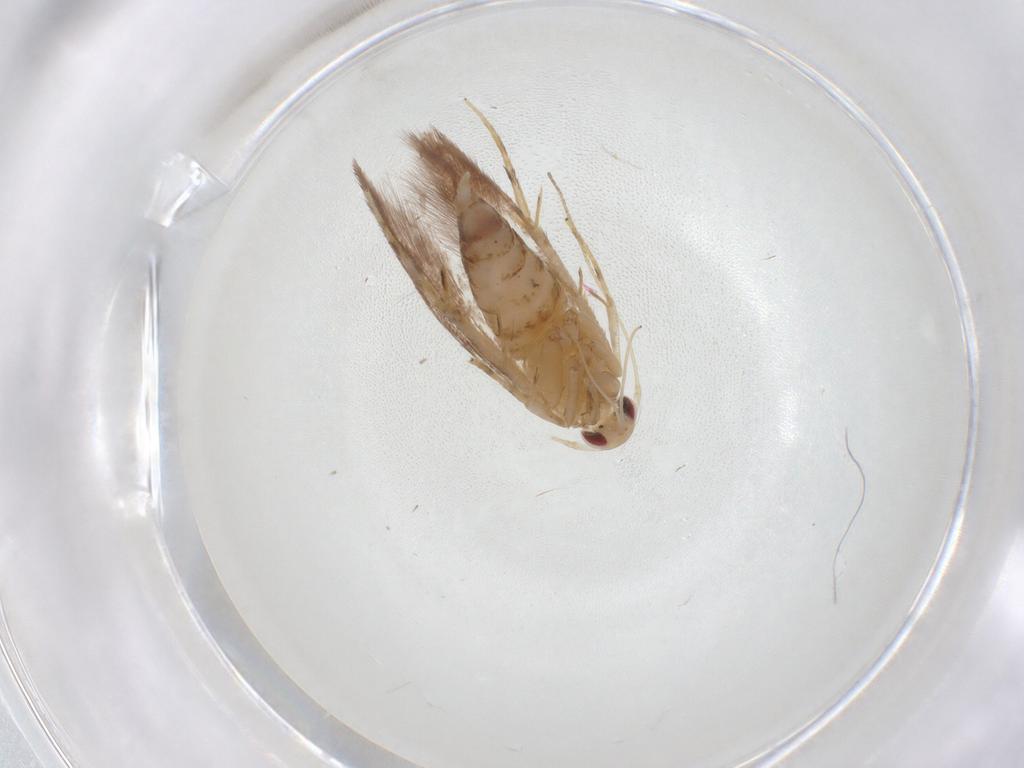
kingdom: Animalia
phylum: Arthropoda
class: Insecta
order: Lepidoptera
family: Cosmopterigidae
